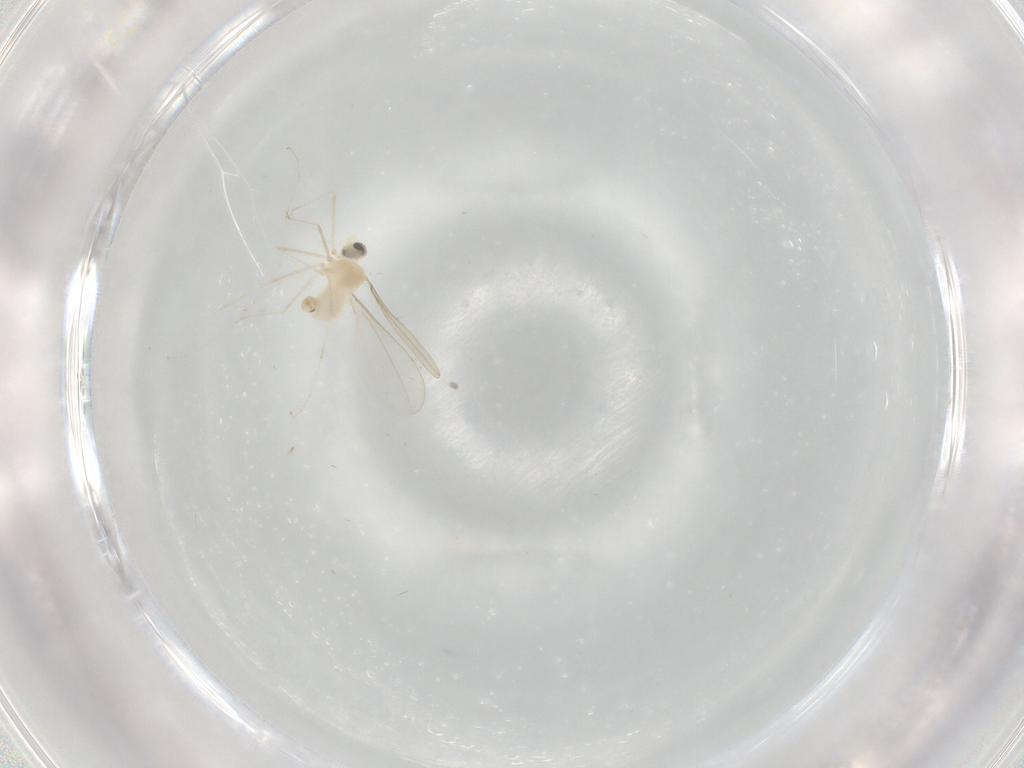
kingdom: Animalia
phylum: Arthropoda
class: Insecta
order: Diptera
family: Cecidomyiidae
